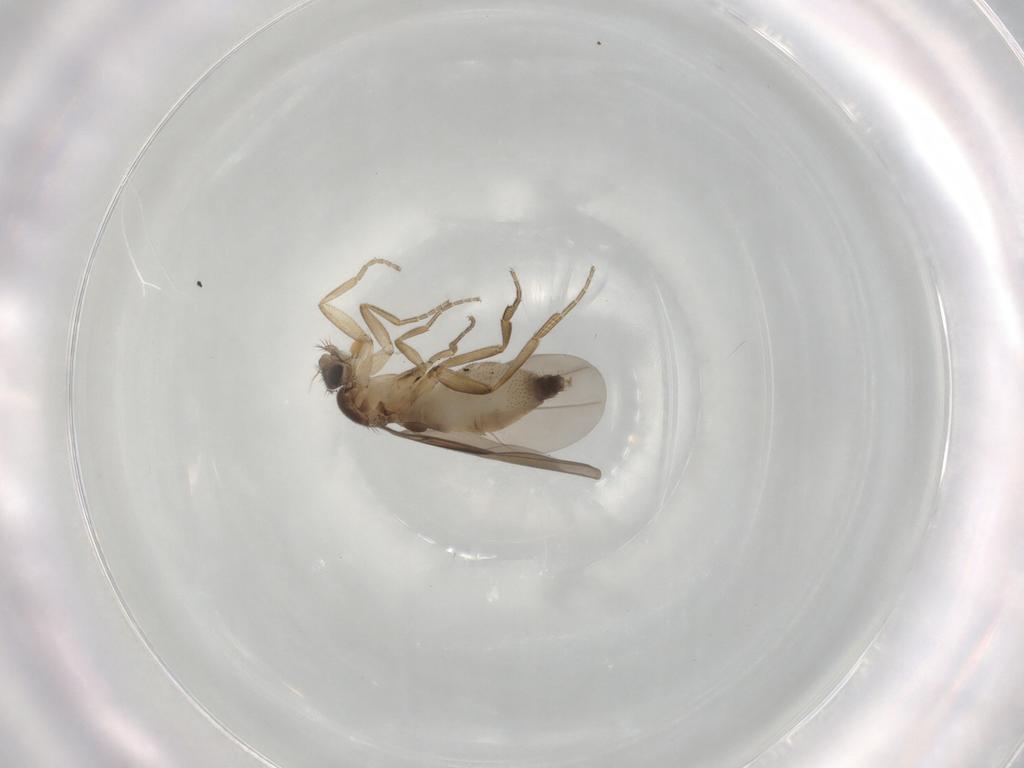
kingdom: Animalia
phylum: Arthropoda
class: Insecta
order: Diptera
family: Phoridae
